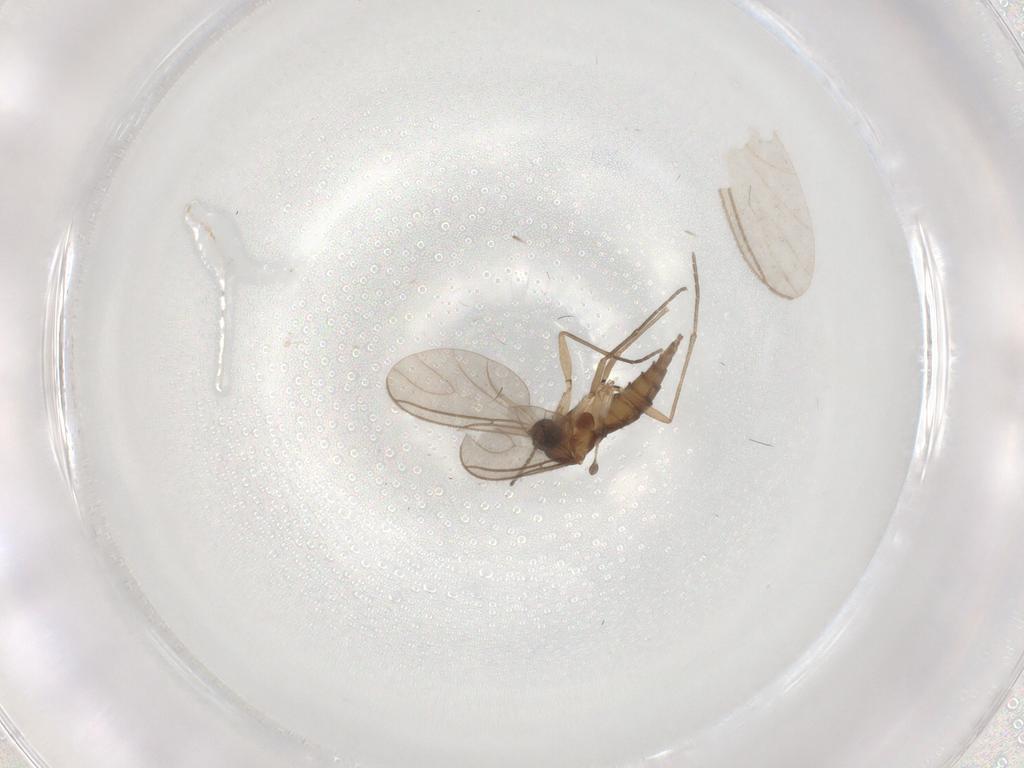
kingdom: Animalia
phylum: Arthropoda
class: Insecta
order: Diptera
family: Sciaridae
